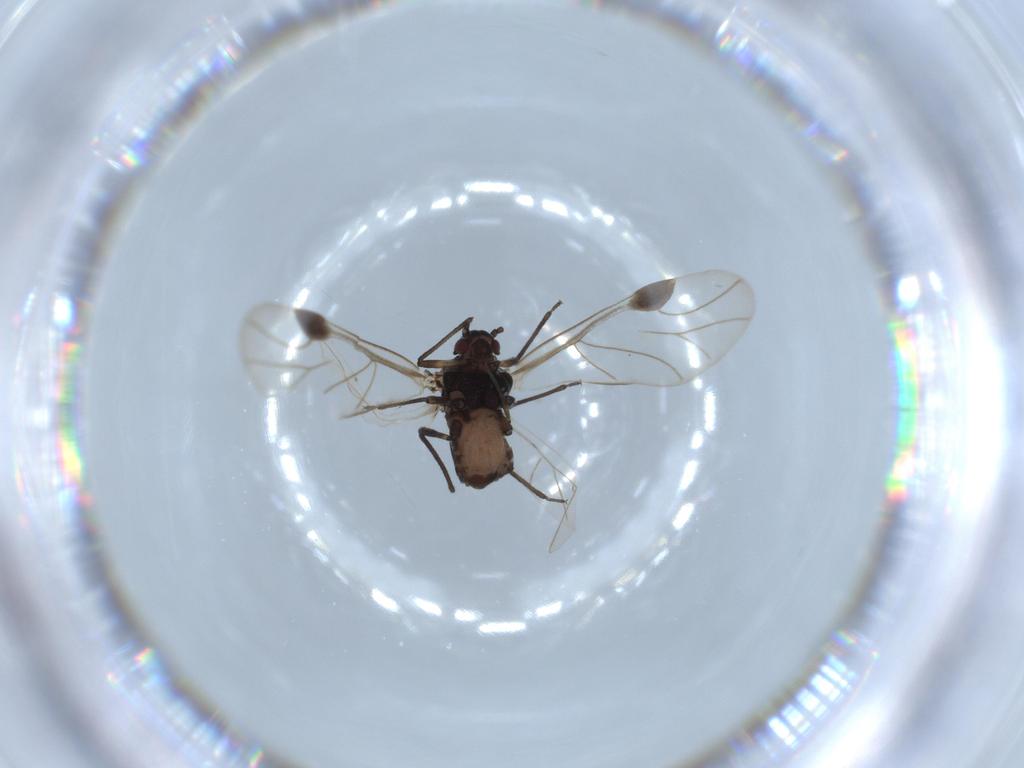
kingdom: Animalia
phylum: Arthropoda
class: Insecta
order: Hemiptera
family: Aphididae
